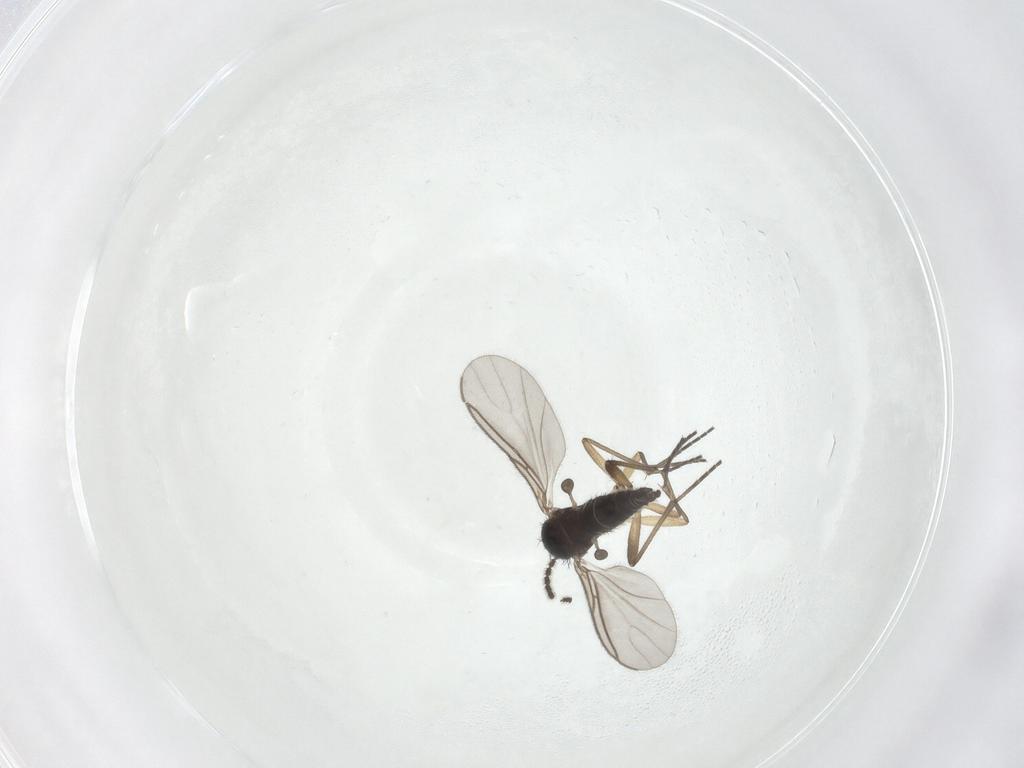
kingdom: Animalia
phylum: Arthropoda
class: Insecta
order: Diptera
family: Sciaridae
